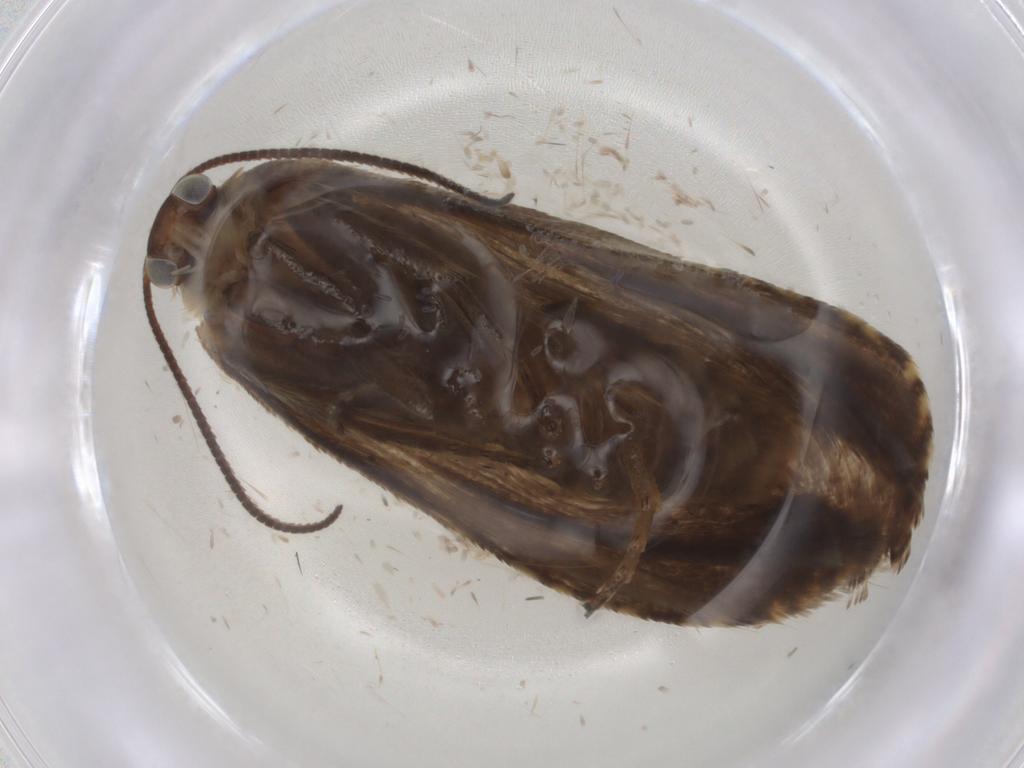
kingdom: Animalia
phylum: Arthropoda
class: Insecta
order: Lepidoptera
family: Tortricidae
